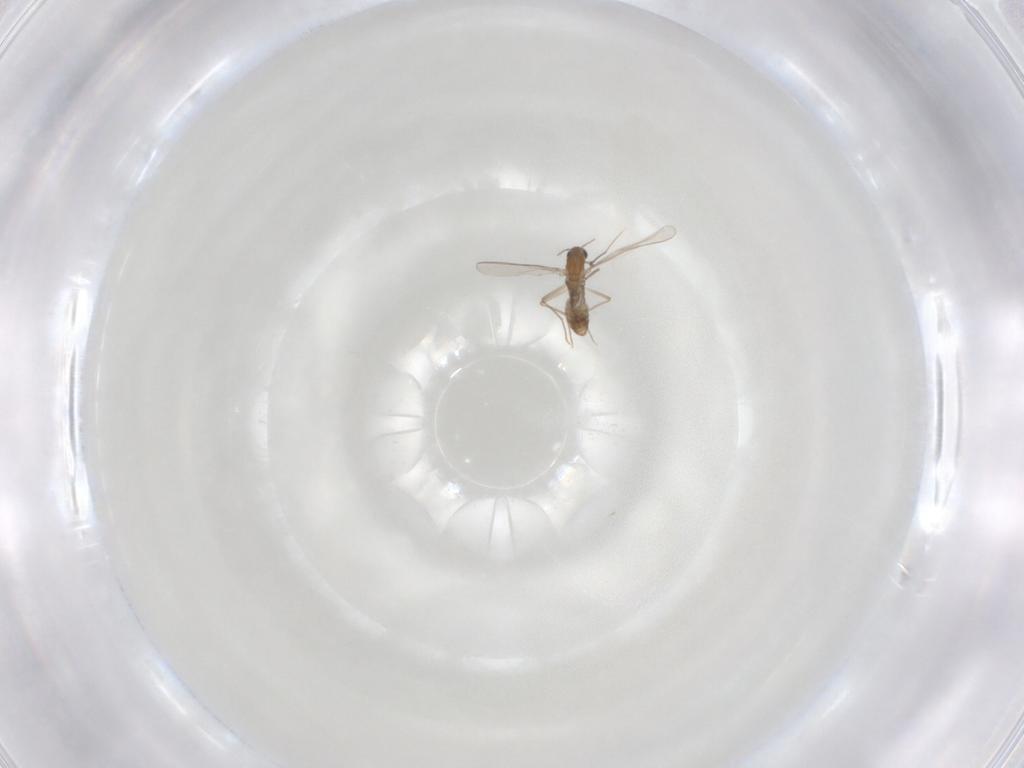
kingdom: Animalia
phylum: Arthropoda
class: Insecta
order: Diptera
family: Chironomidae
